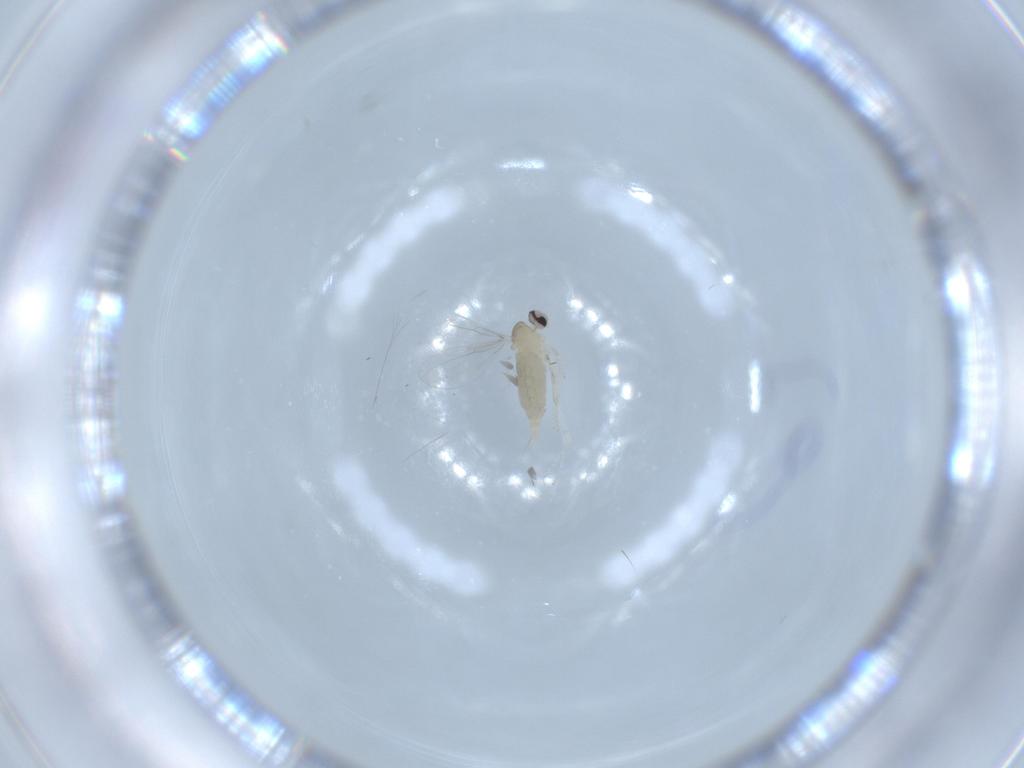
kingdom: Animalia
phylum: Arthropoda
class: Insecta
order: Diptera
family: Cecidomyiidae
